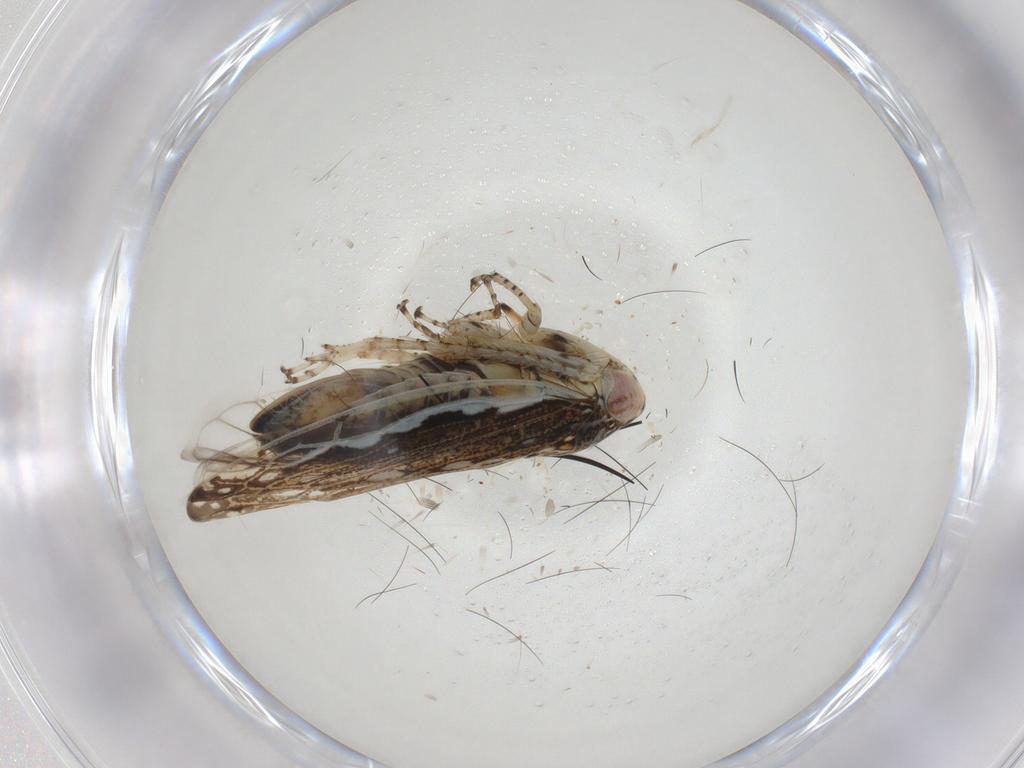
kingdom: Animalia
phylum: Arthropoda
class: Insecta
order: Hemiptera
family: Cicadellidae
